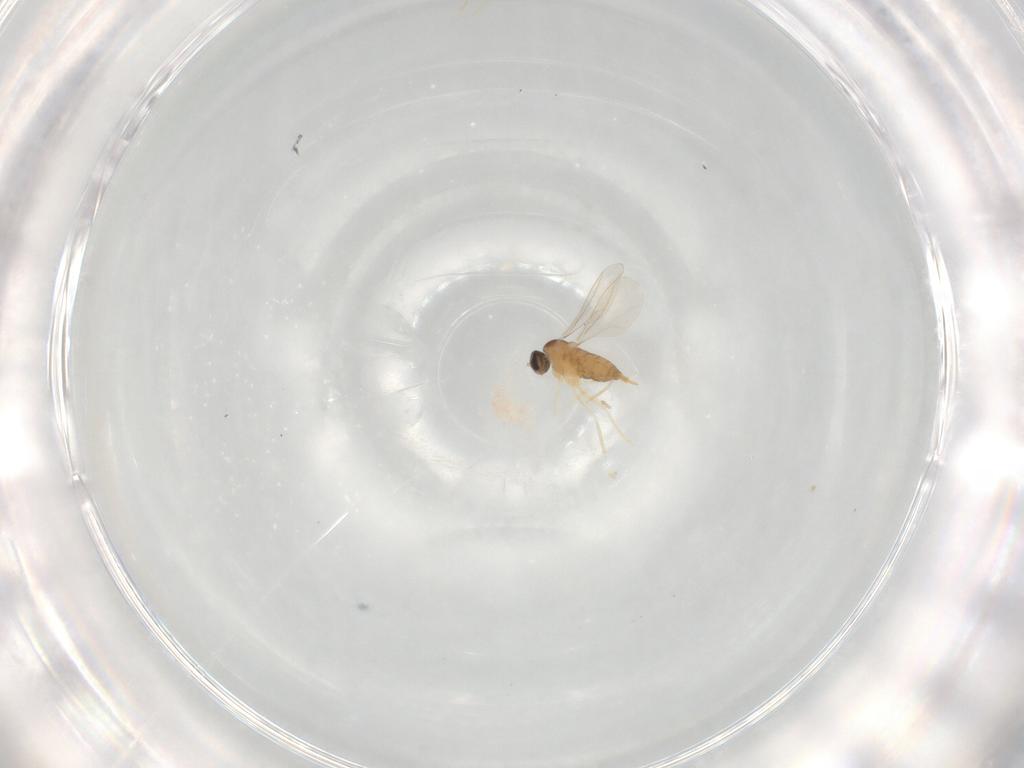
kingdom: Animalia
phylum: Arthropoda
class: Insecta
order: Diptera
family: Cecidomyiidae
